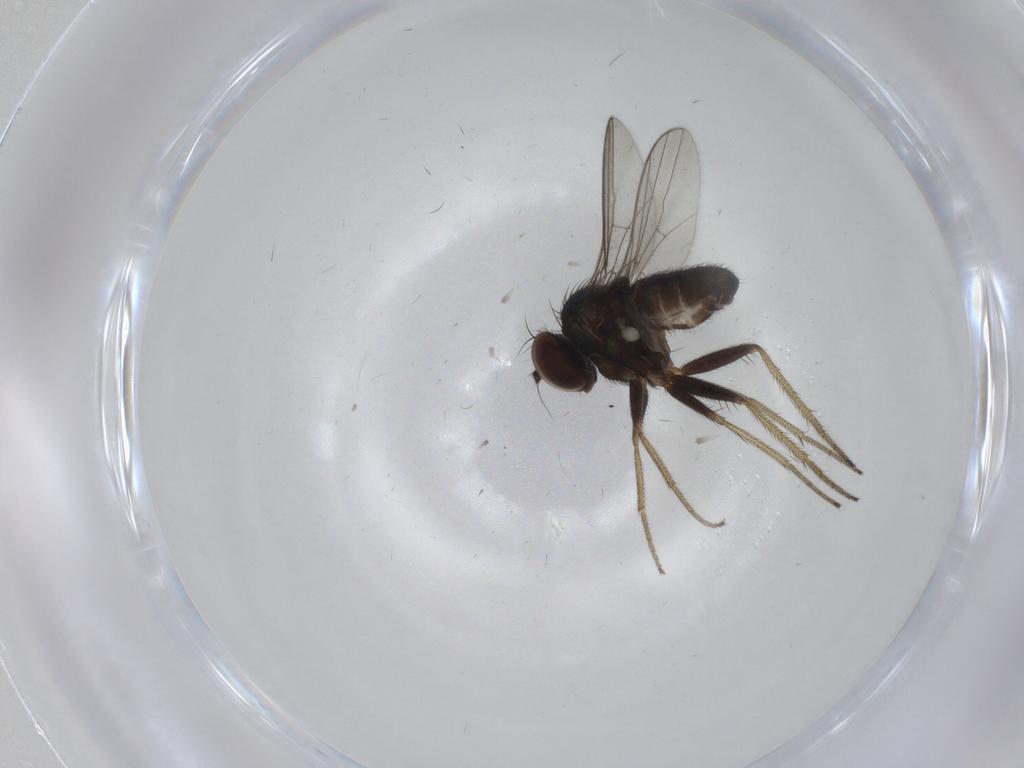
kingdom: Animalia
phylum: Arthropoda
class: Insecta
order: Diptera
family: Dolichopodidae
